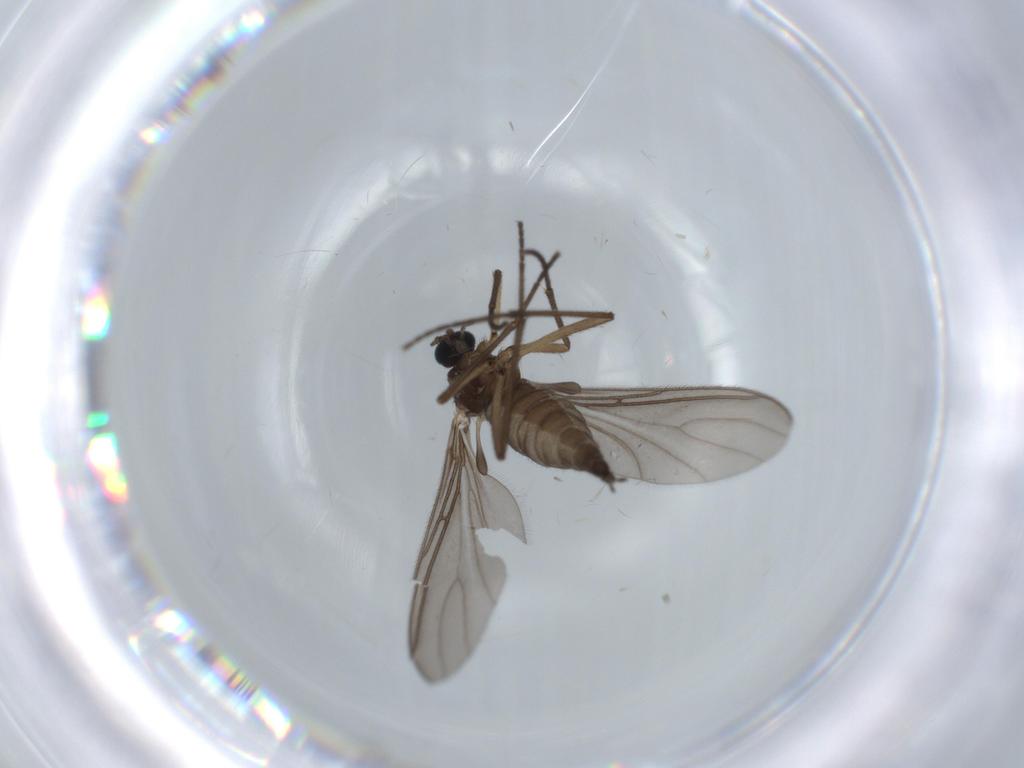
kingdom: Animalia
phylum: Arthropoda
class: Insecta
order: Diptera
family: Sciaridae
